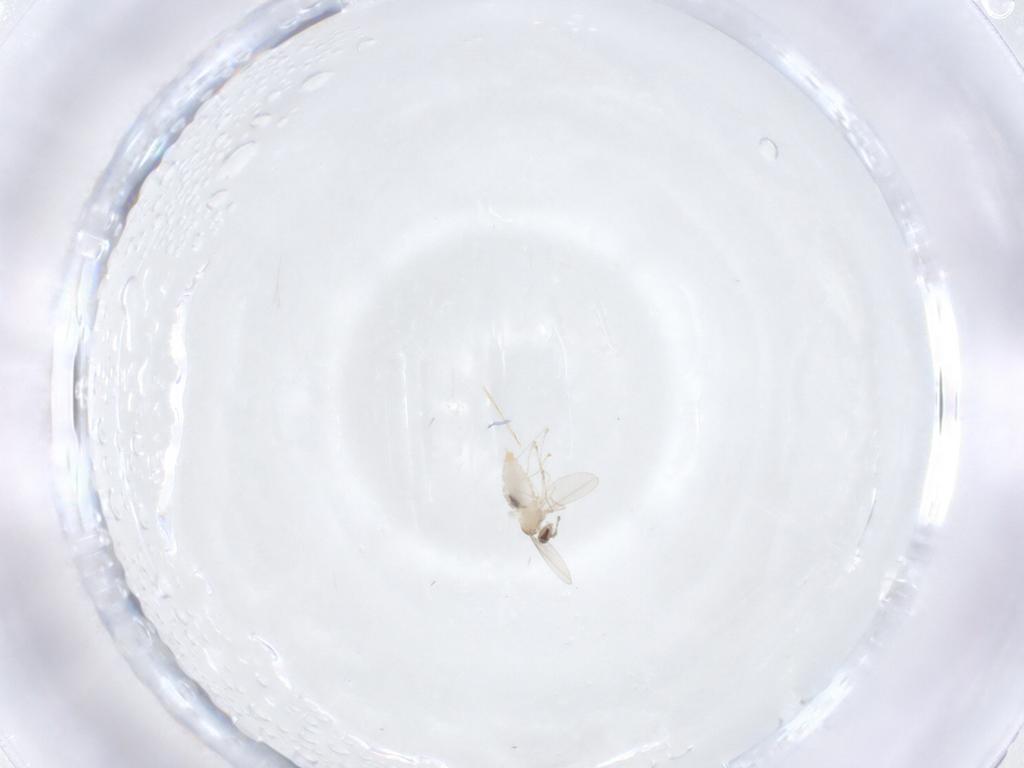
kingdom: Animalia
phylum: Arthropoda
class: Insecta
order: Diptera
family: Cecidomyiidae
